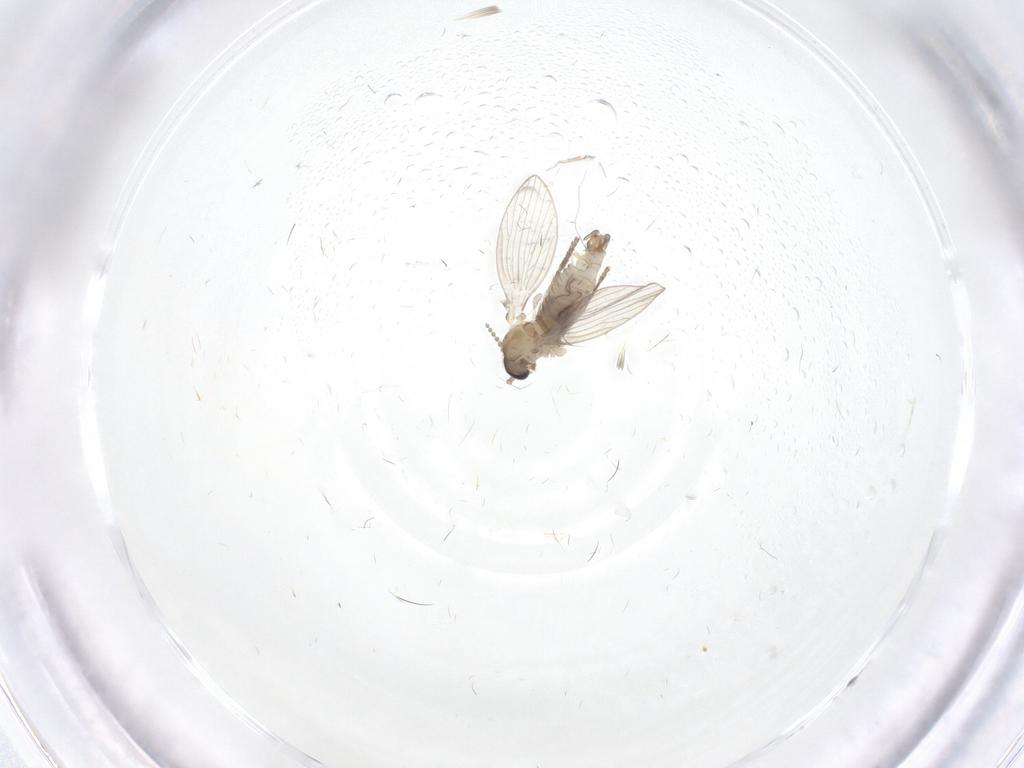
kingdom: Animalia
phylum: Arthropoda
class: Insecta
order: Diptera
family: Psychodidae
